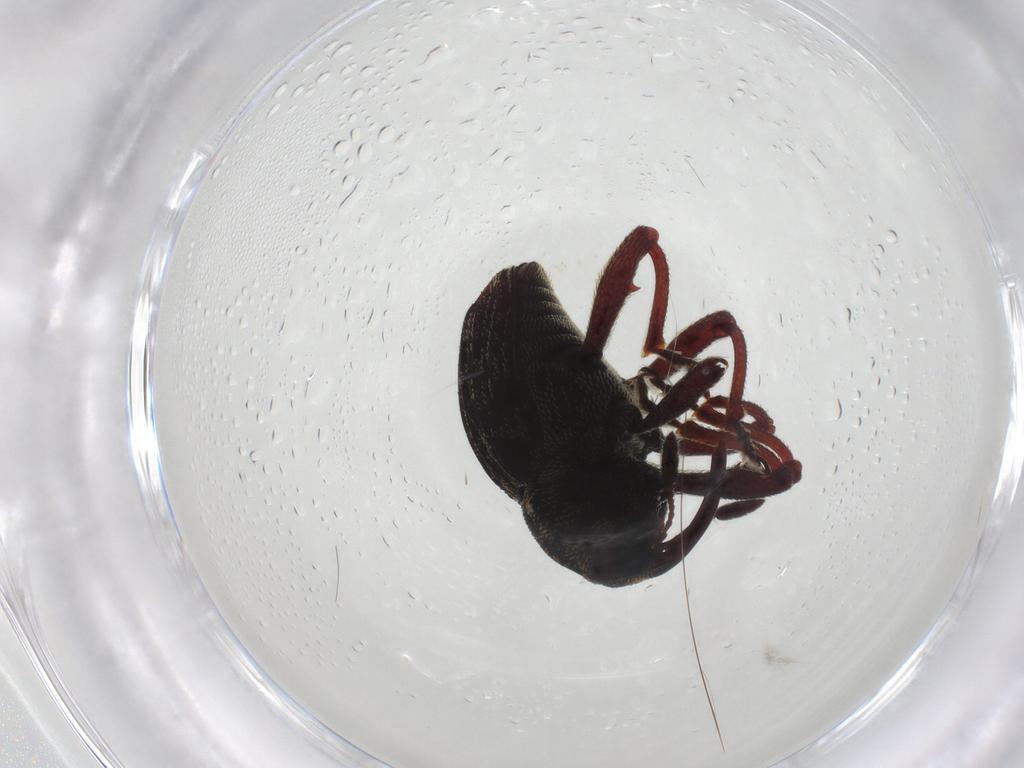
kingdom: Animalia
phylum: Arthropoda
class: Insecta
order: Coleoptera
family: Curculionidae
